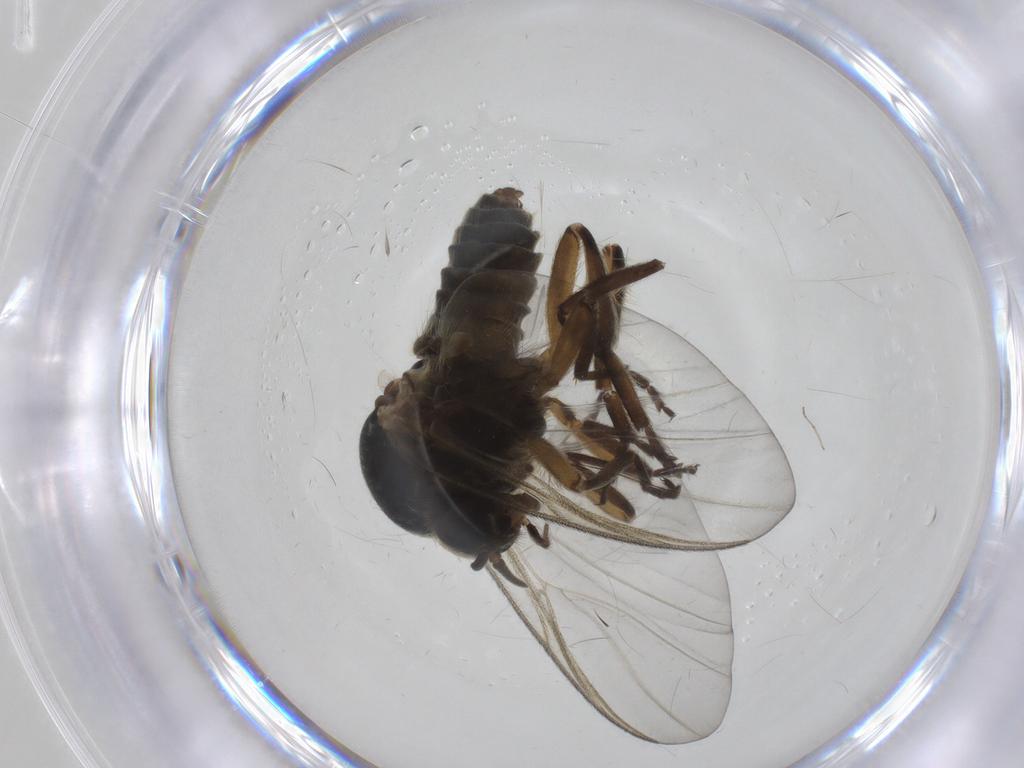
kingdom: Animalia
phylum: Arthropoda
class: Insecta
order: Diptera
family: Simuliidae
